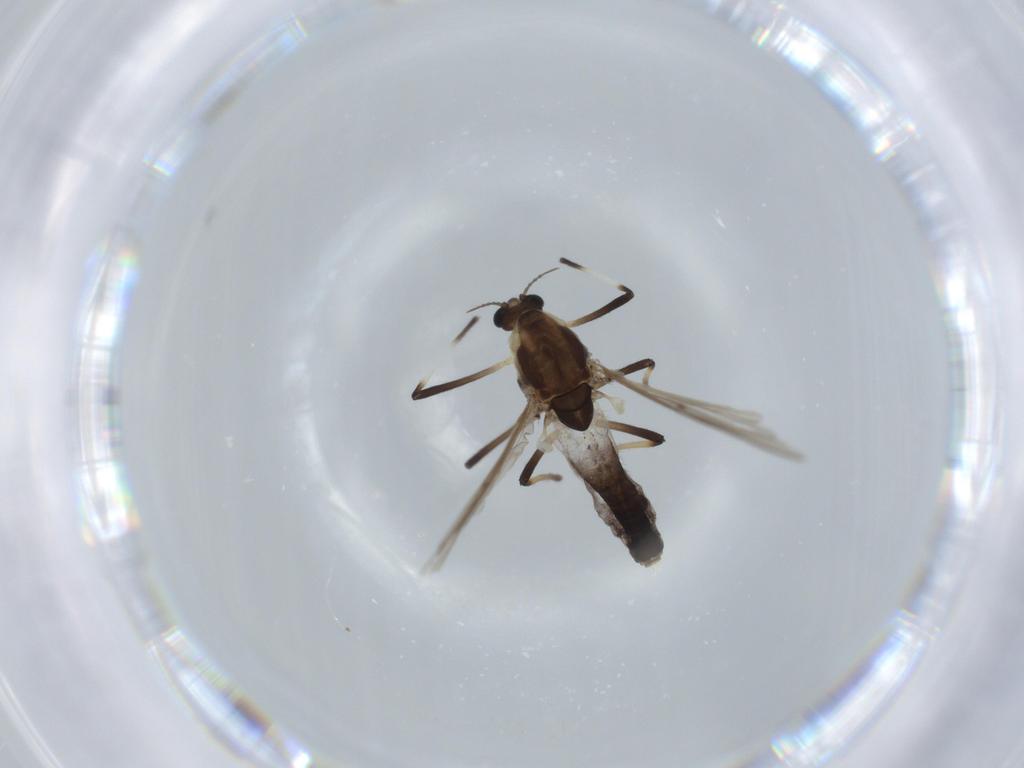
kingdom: Animalia
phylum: Arthropoda
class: Insecta
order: Diptera
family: Chironomidae
